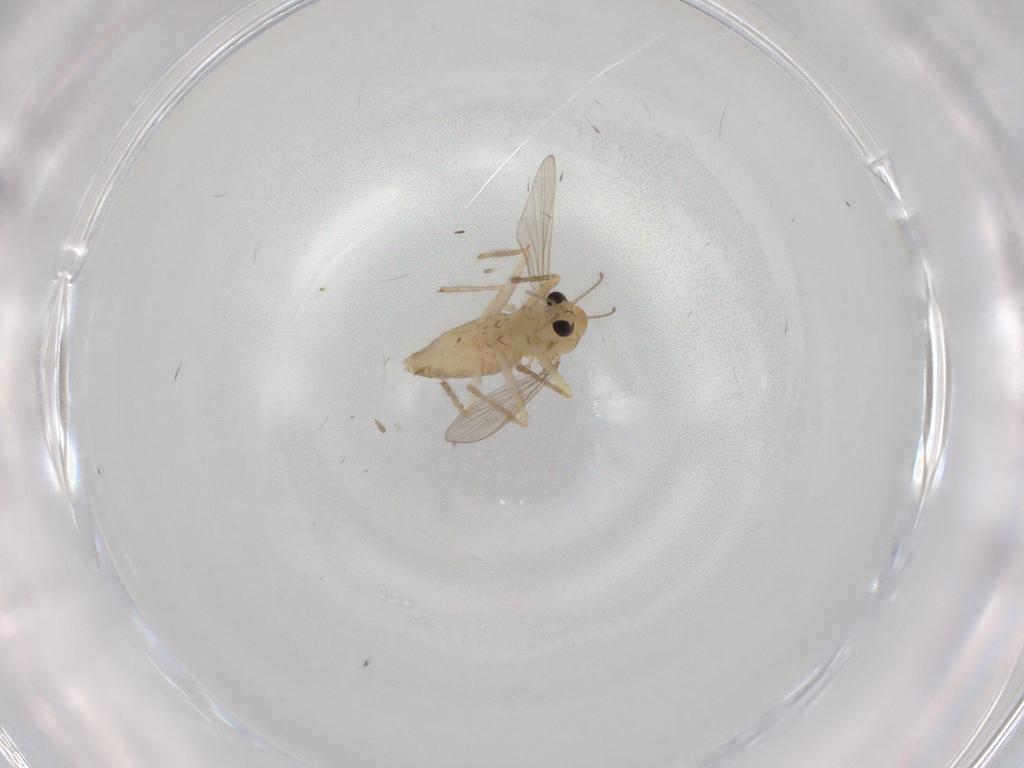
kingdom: Animalia
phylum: Arthropoda
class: Insecta
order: Diptera
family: Chironomidae
